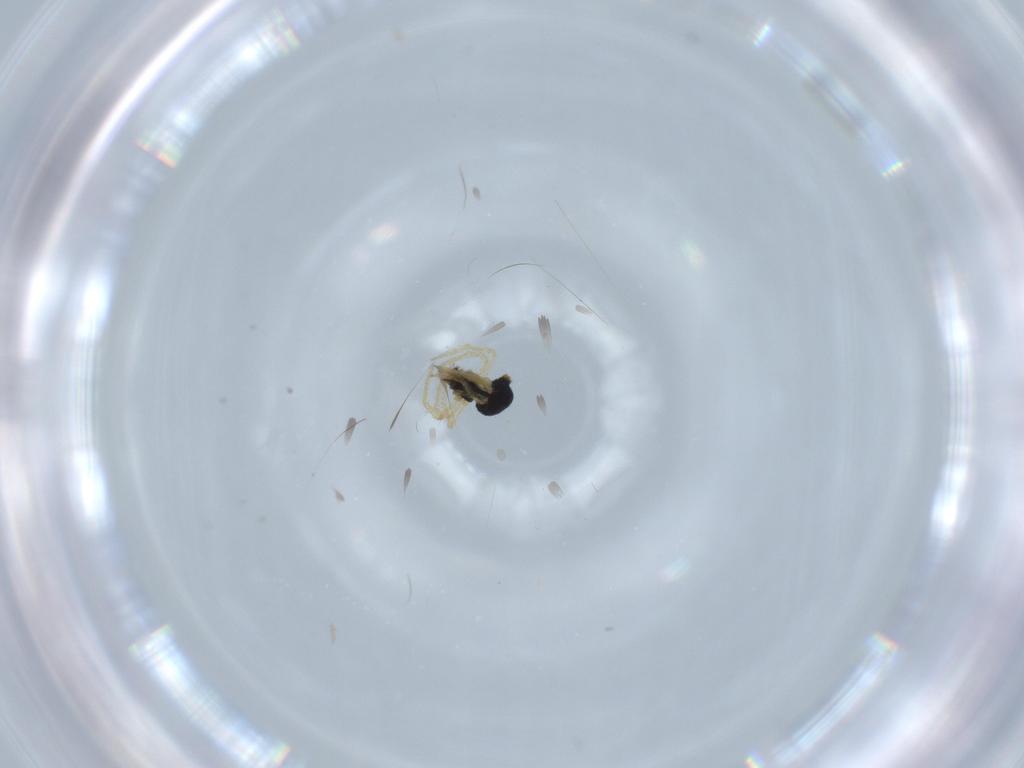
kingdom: Animalia
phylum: Arthropoda
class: Arachnida
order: Araneae
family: Theridiidae
